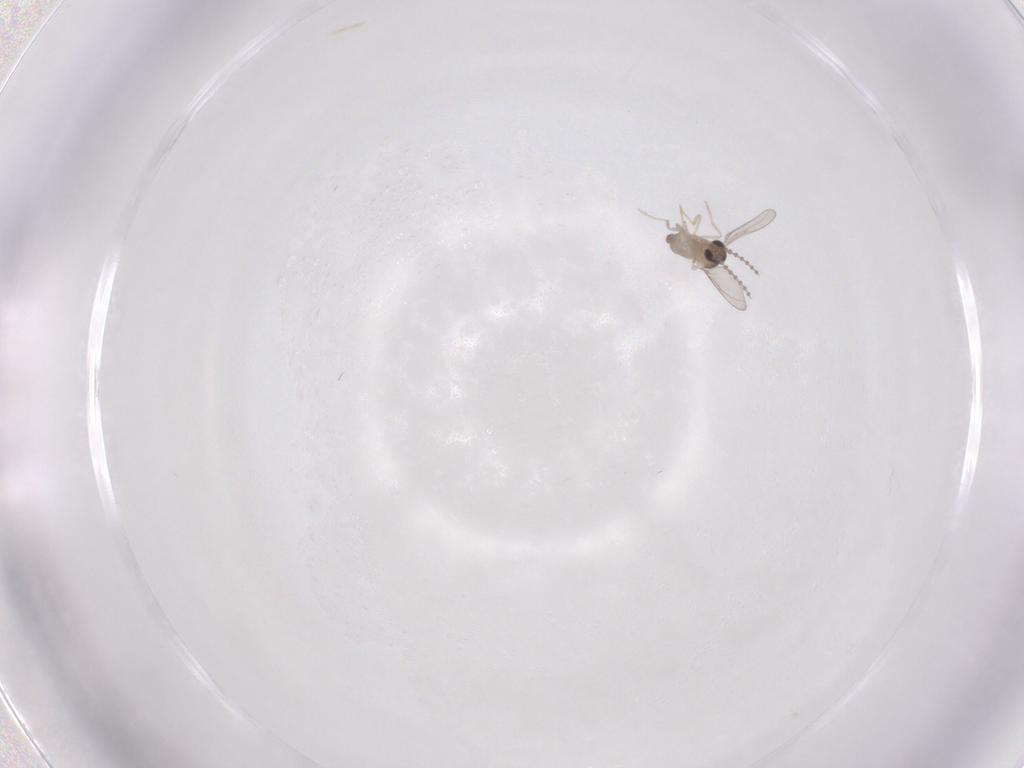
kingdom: Animalia
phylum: Arthropoda
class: Insecta
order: Diptera
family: Cecidomyiidae
